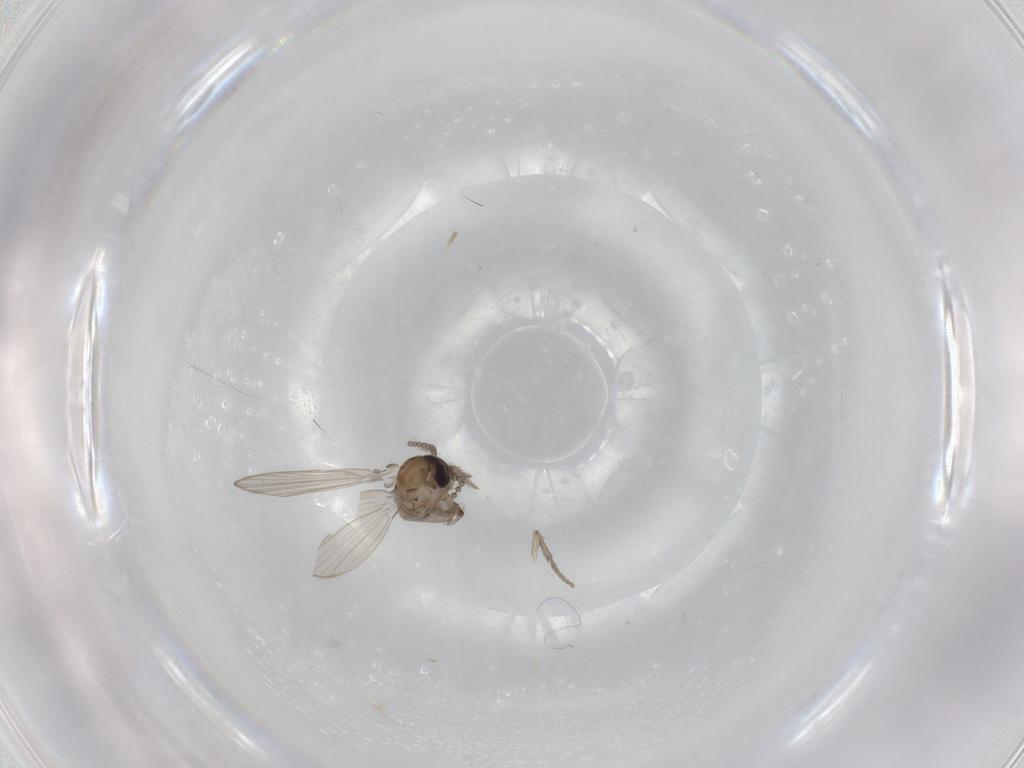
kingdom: Animalia
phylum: Arthropoda
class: Insecta
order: Diptera
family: Psychodidae
